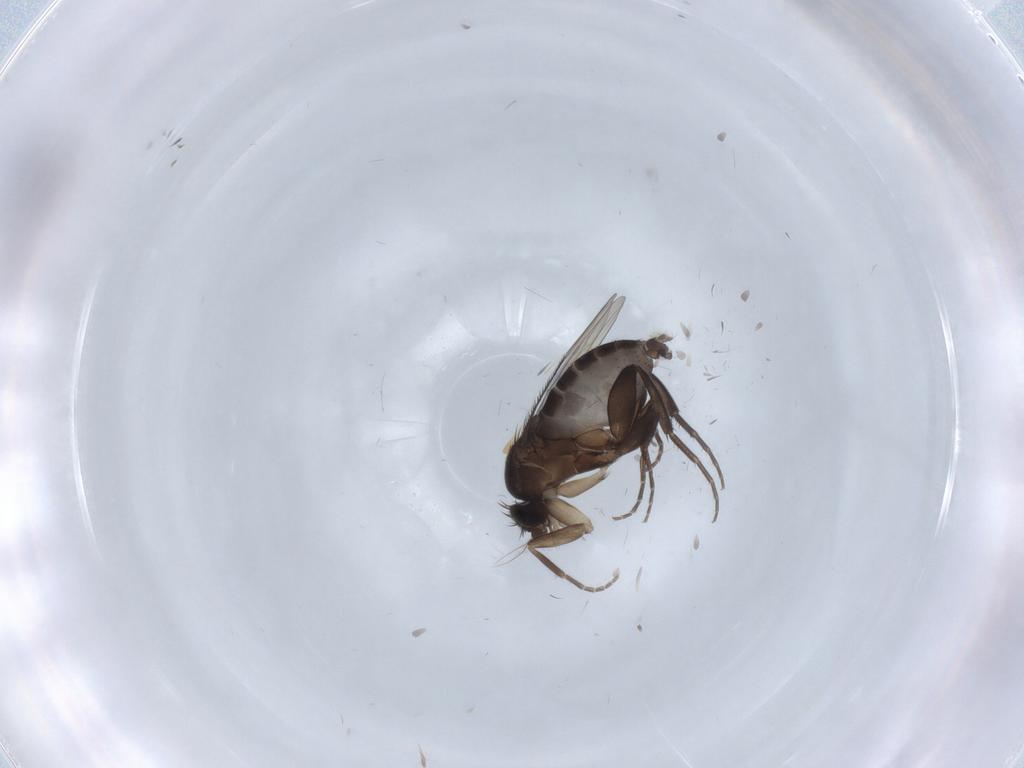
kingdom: Animalia
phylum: Arthropoda
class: Insecta
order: Diptera
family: Phoridae
